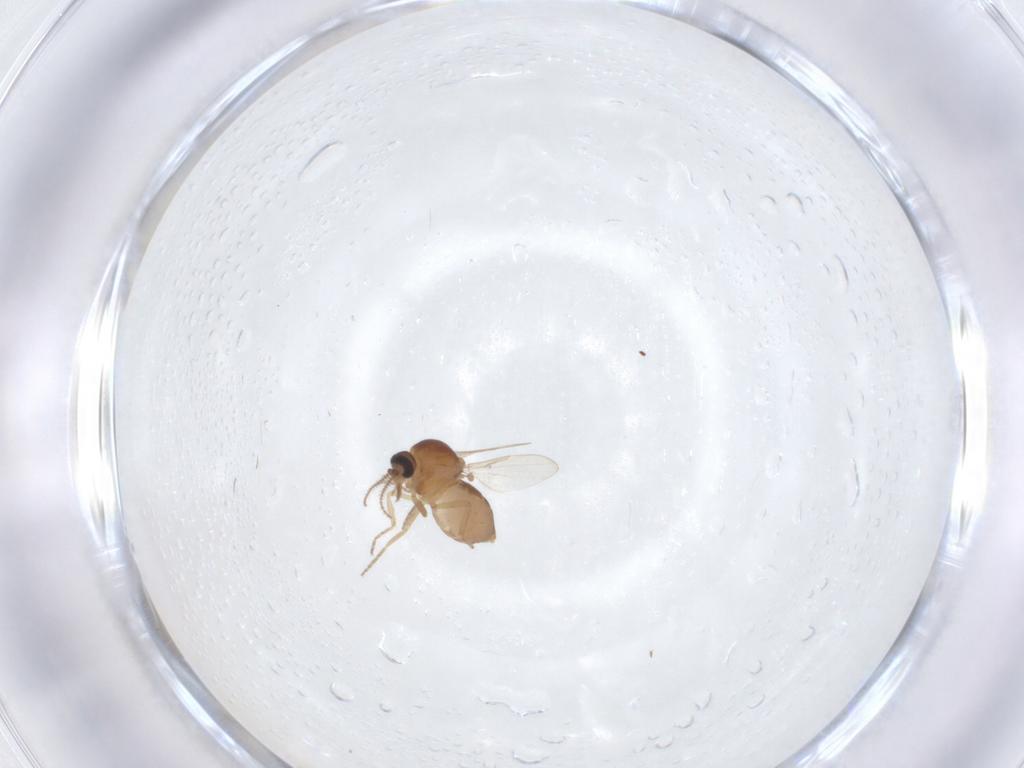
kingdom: Animalia
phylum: Arthropoda
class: Insecta
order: Diptera
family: Ceratopogonidae
